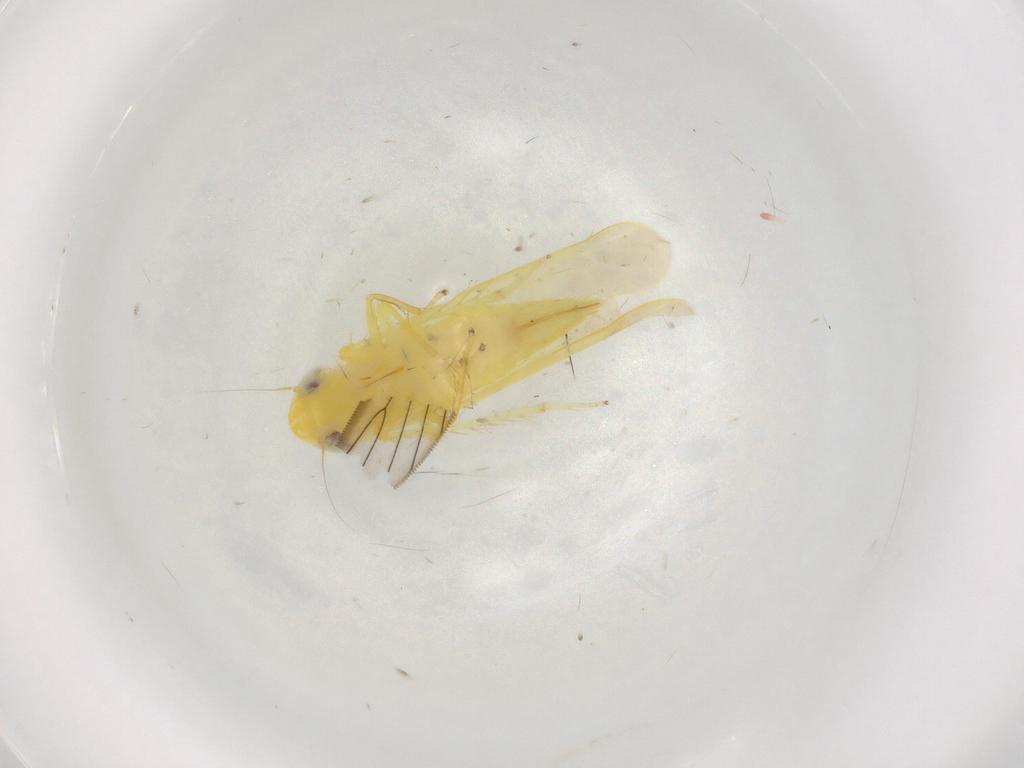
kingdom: Animalia
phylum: Arthropoda
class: Insecta
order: Hemiptera
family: Cicadellidae
